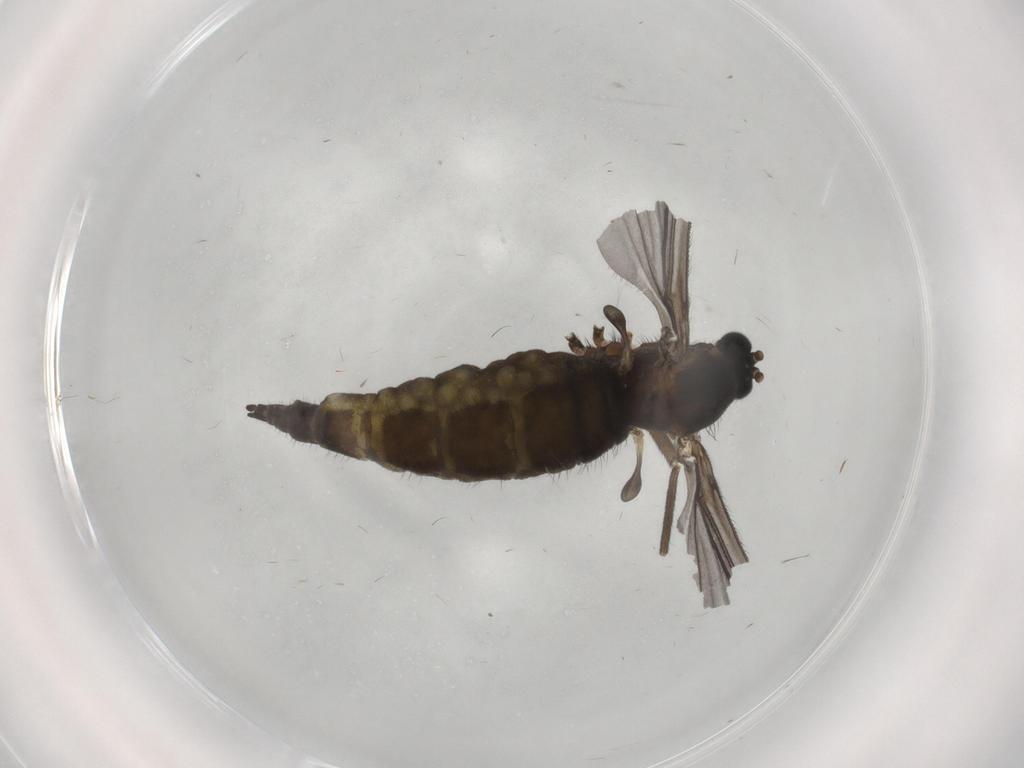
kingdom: Animalia
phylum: Arthropoda
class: Insecta
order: Diptera
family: Sciaridae
